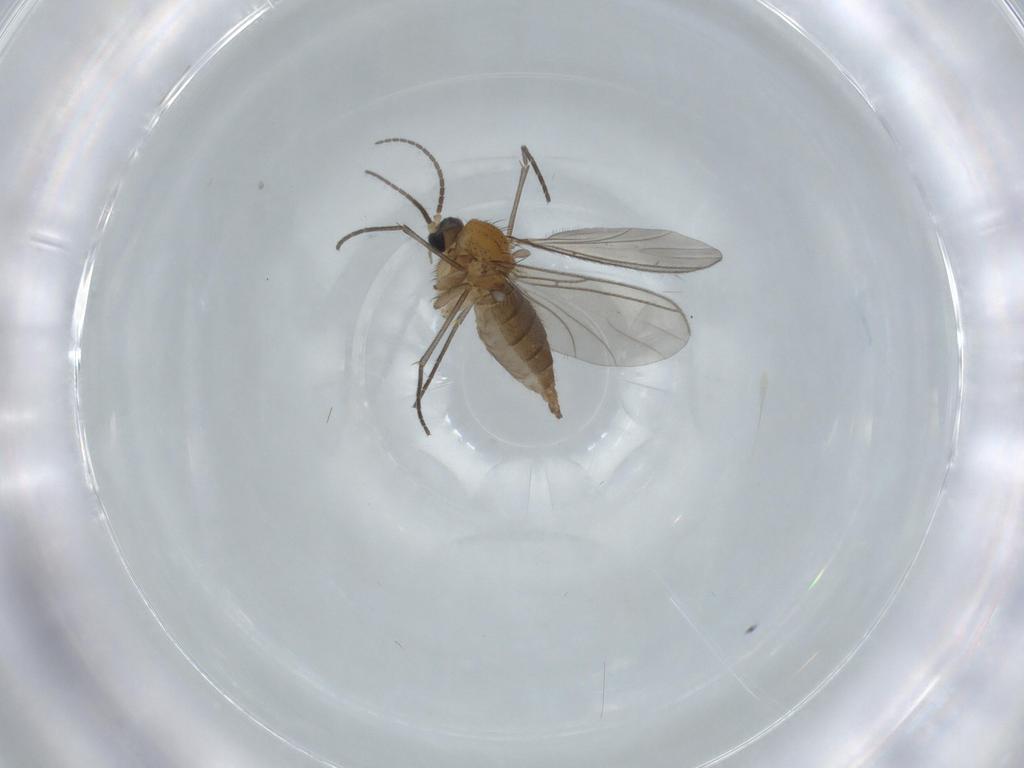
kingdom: Animalia
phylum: Arthropoda
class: Insecta
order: Diptera
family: Sciaridae
